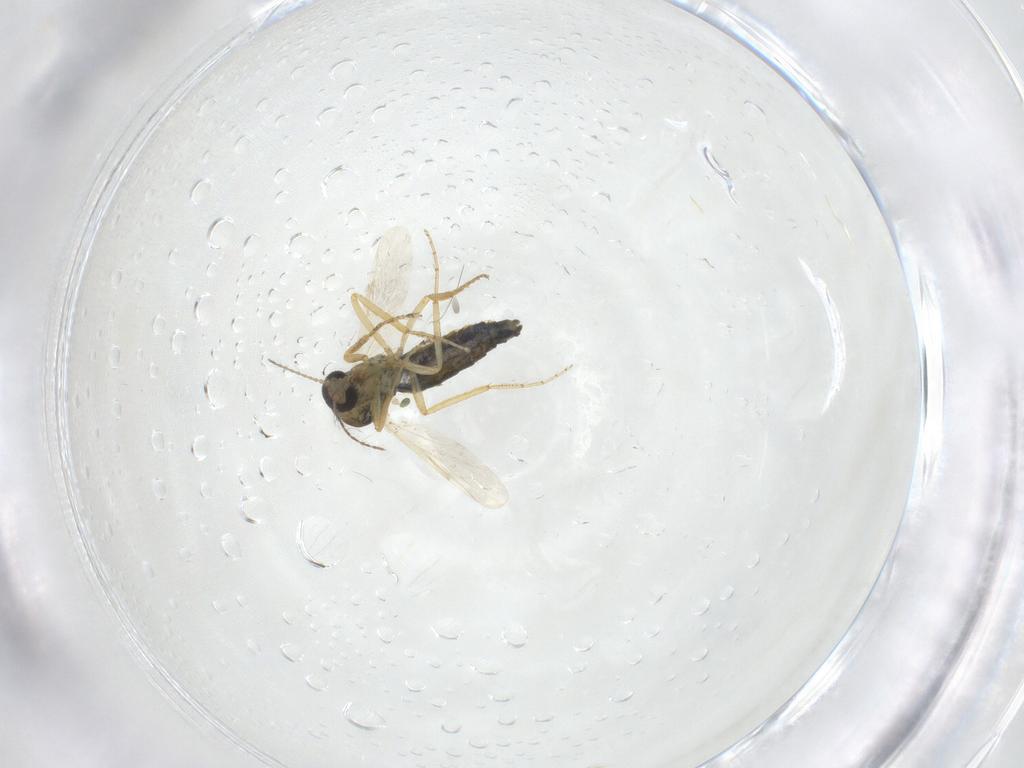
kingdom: Animalia
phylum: Arthropoda
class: Insecta
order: Diptera
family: Ceratopogonidae
